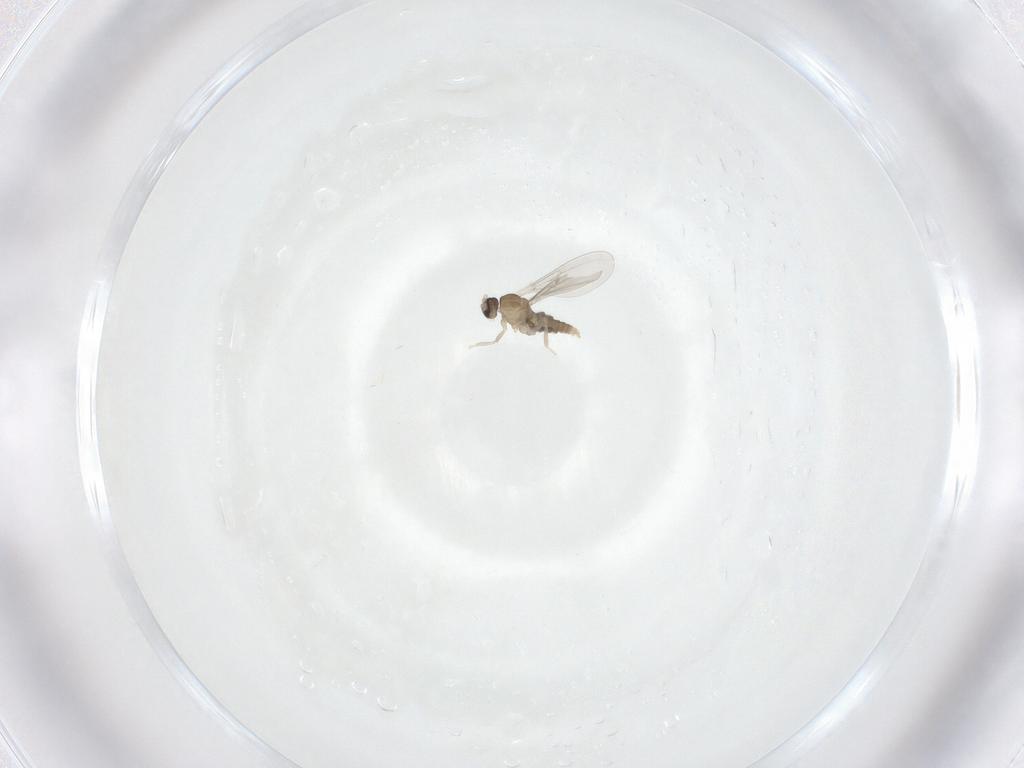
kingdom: Animalia
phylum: Arthropoda
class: Insecta
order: Diptera
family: Cecidomyiidae
